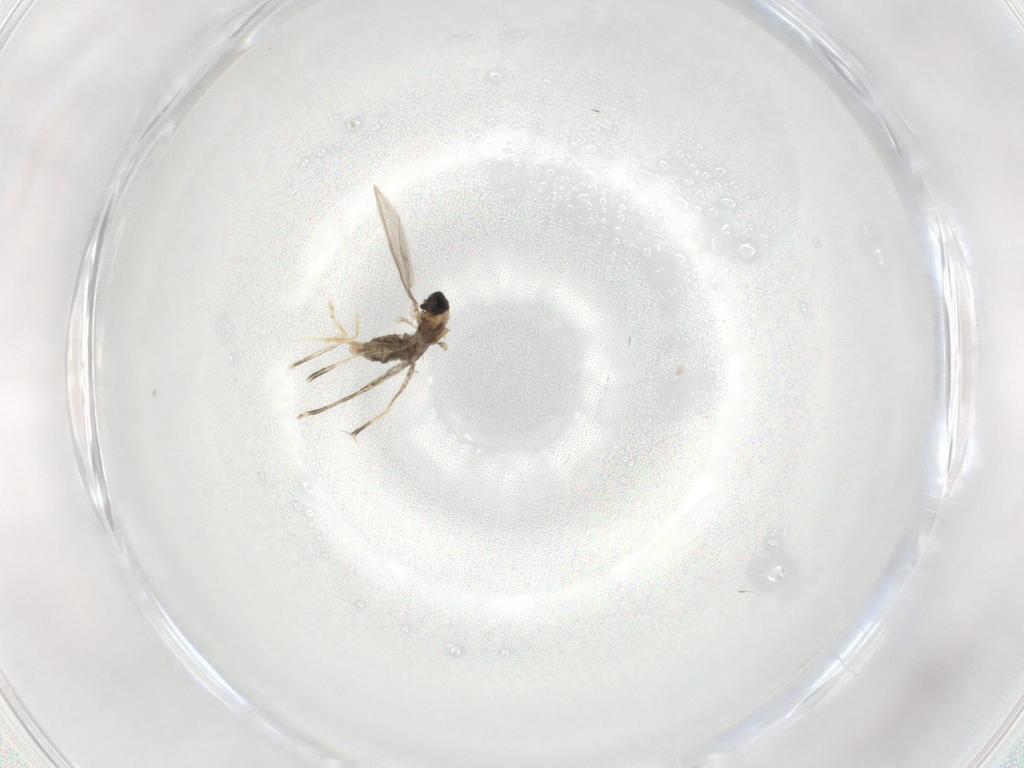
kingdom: Animalia
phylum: Arthropoda
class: Insecta
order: Diptera
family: Cecidomyiidae
